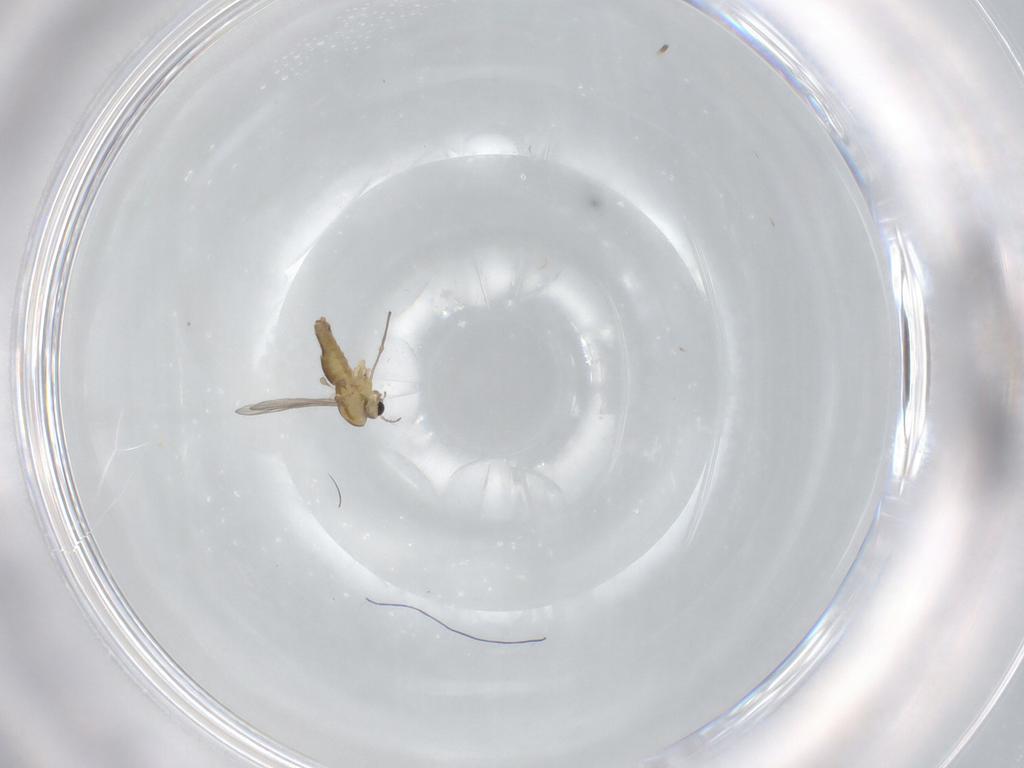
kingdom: Animalia
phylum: Arthropoda
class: Insecta
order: Diptera
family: Chironomidae
